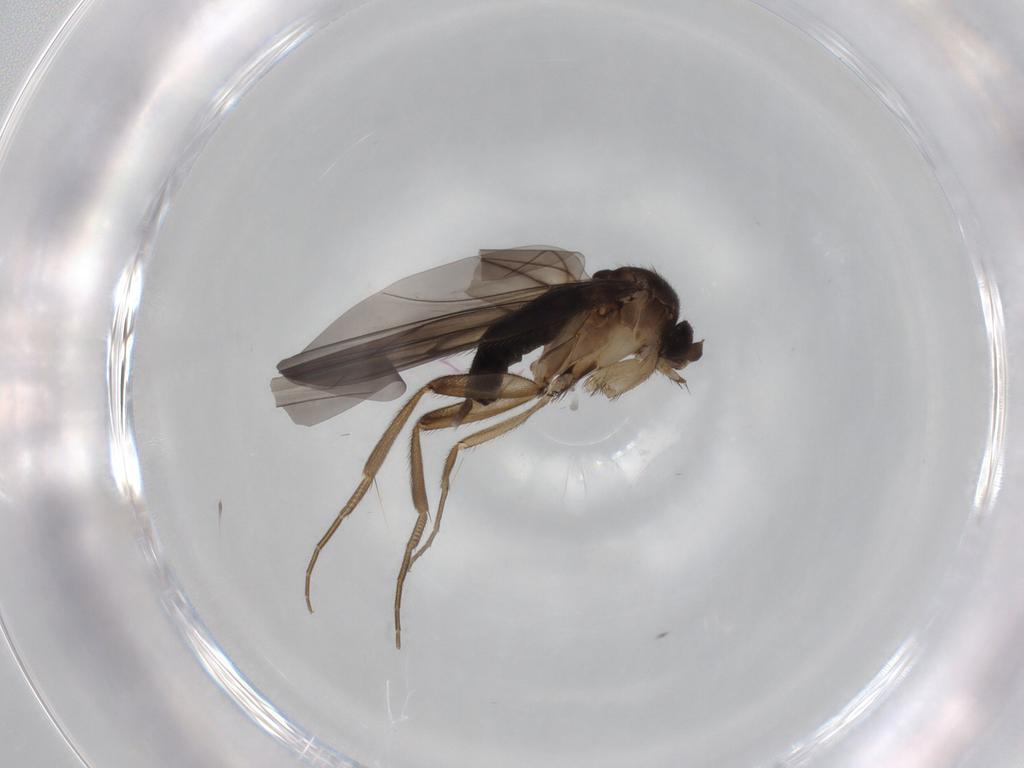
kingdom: Animalia
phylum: Arthropoda
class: Insecta
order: Diptera
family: Phoridae
